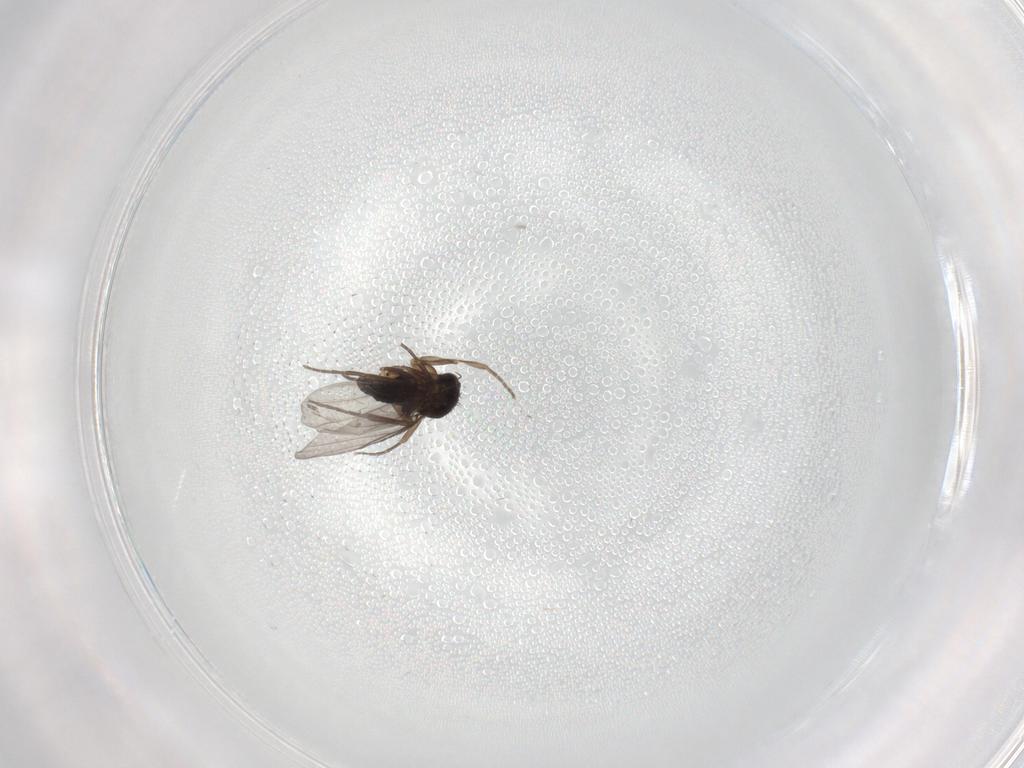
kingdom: Animalia
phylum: Arthropoda
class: Insecta
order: Diptera
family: Phoridae
